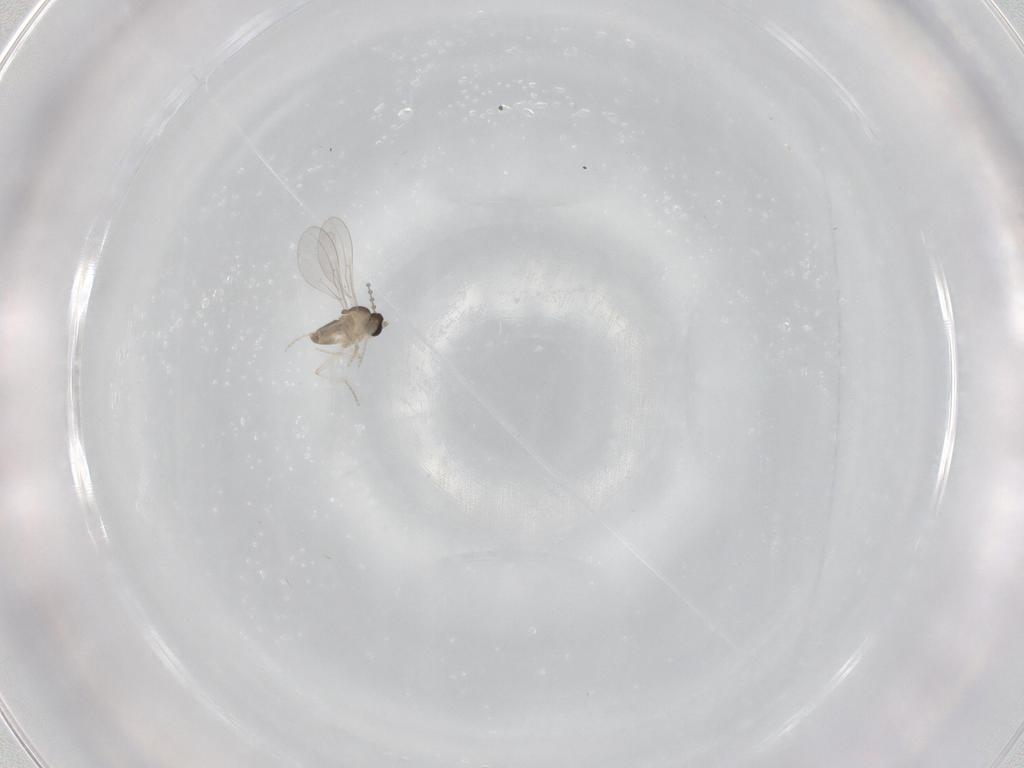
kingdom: Animalia
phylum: Arthropoda
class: Insecta
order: Diptera
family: Cecidomyiidae
